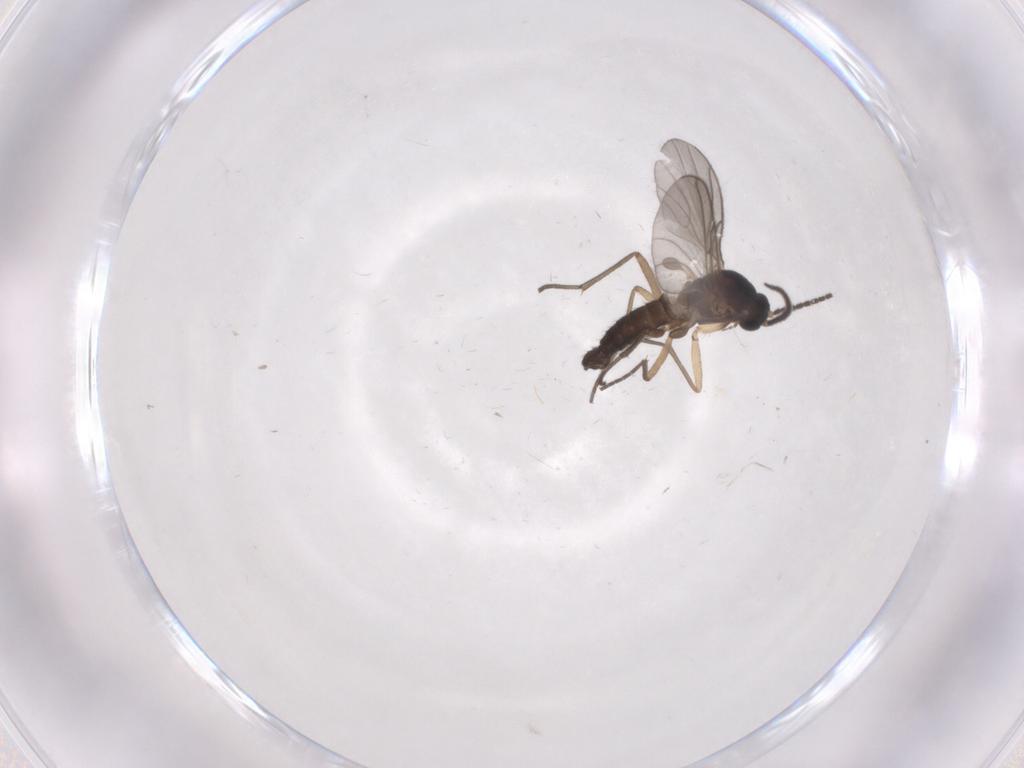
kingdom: Animalia
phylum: Arthropoda
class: Insecta
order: Diptera
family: Sciaridae
